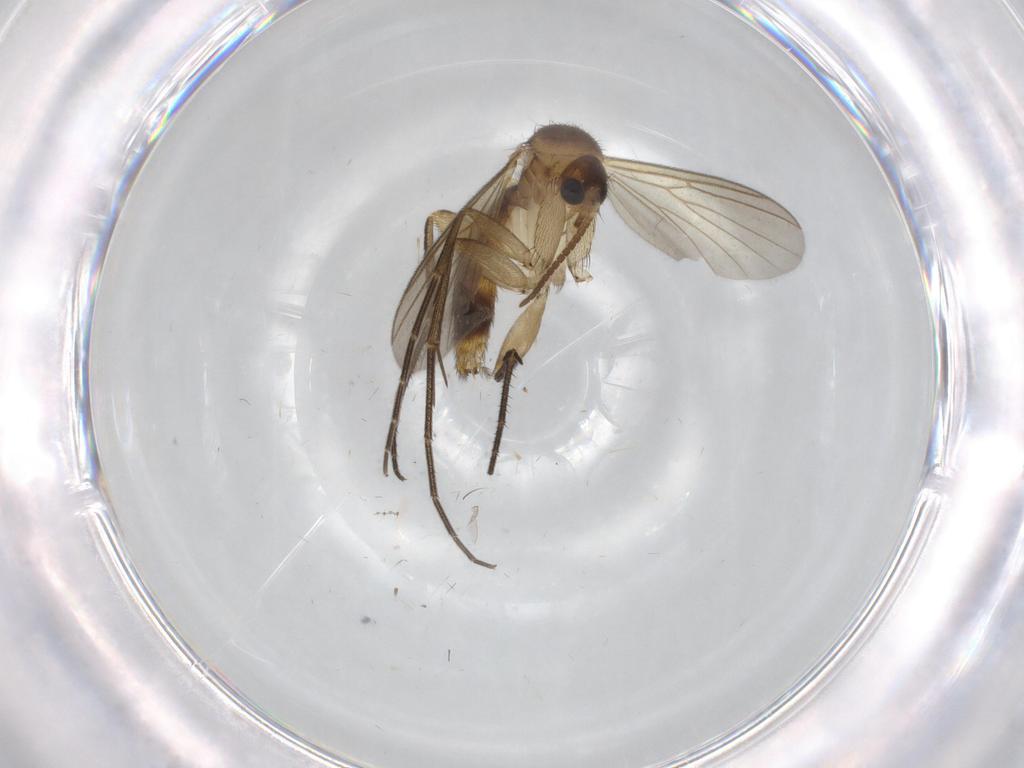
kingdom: Animalia
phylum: Arthropoda
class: Insecta
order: Diptera
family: Mycetophilidae
